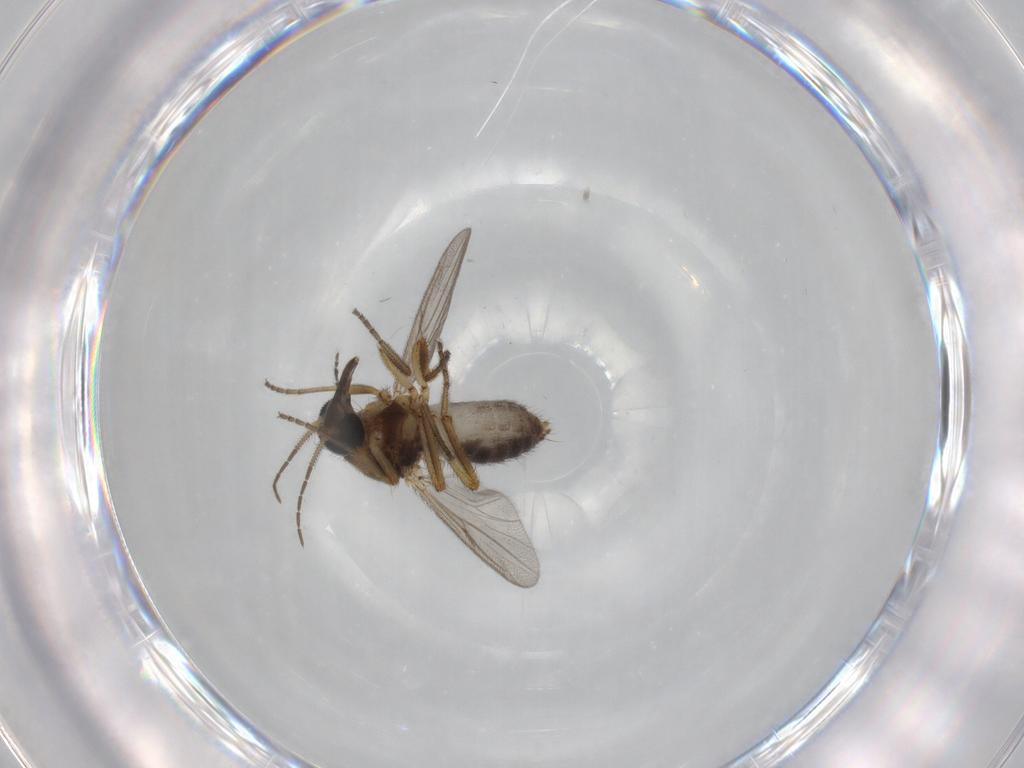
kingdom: Animalia
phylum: Arthropoda
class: Insecta
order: Diptera
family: Ceratopogonidae
